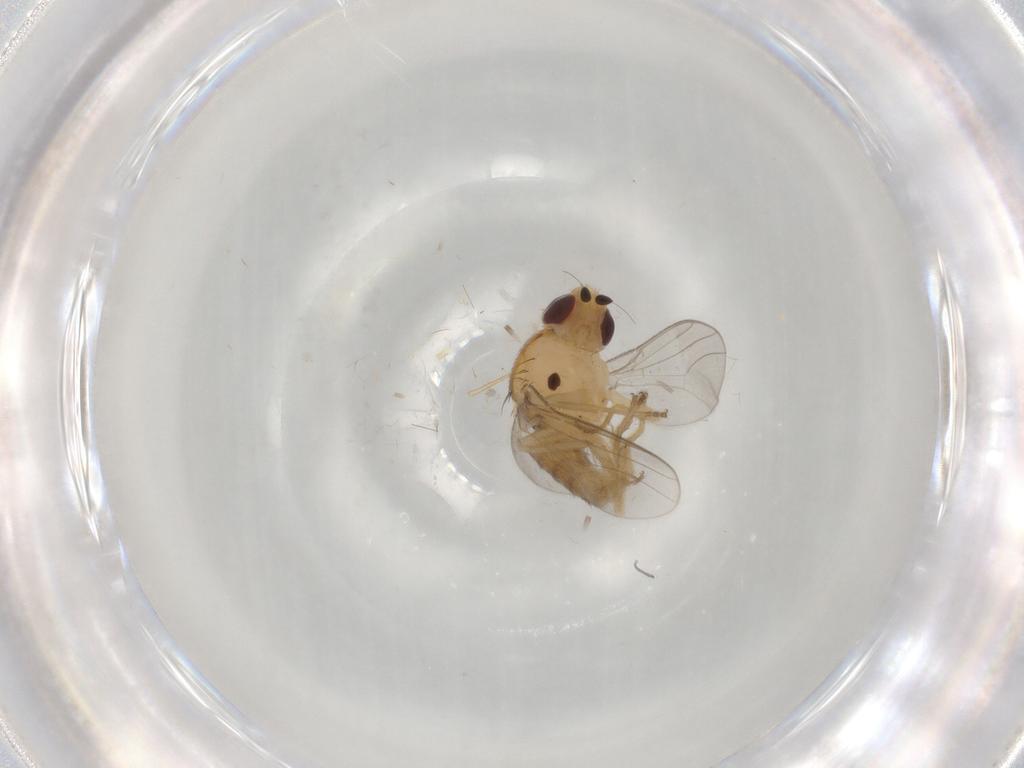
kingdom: Animalia
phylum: Arthropoda
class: Insecta
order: Diptera
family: Chloropidae
